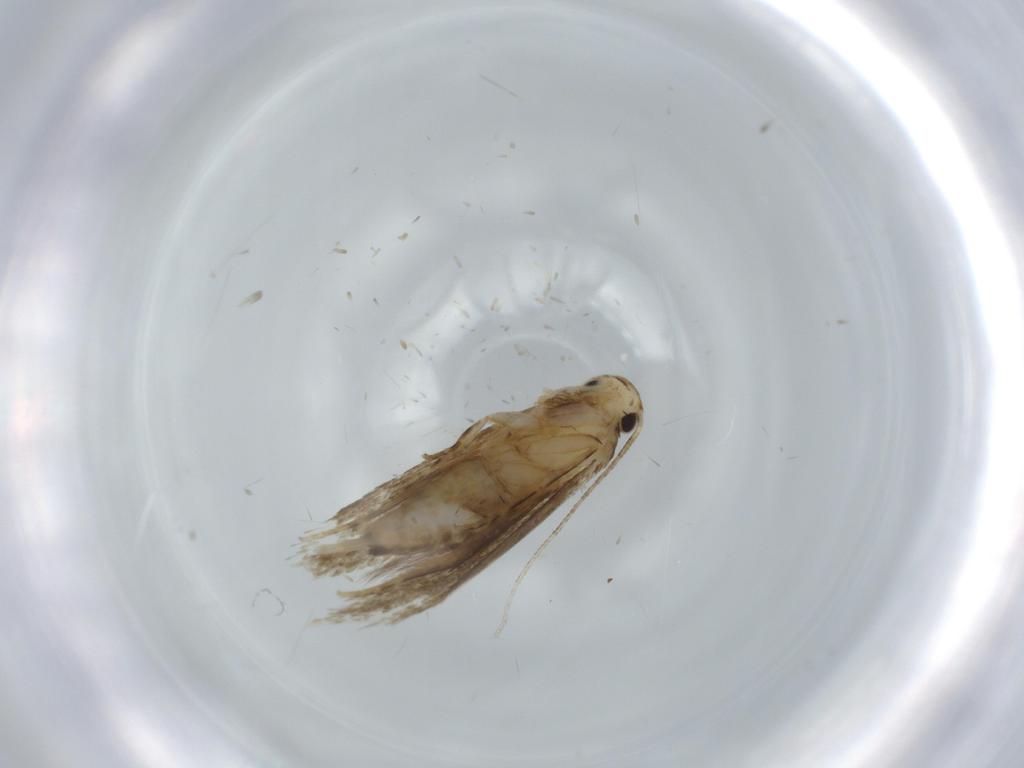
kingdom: Animalia
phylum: Arthropoda
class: Insecta
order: Lepidoptera
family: Tineidae
